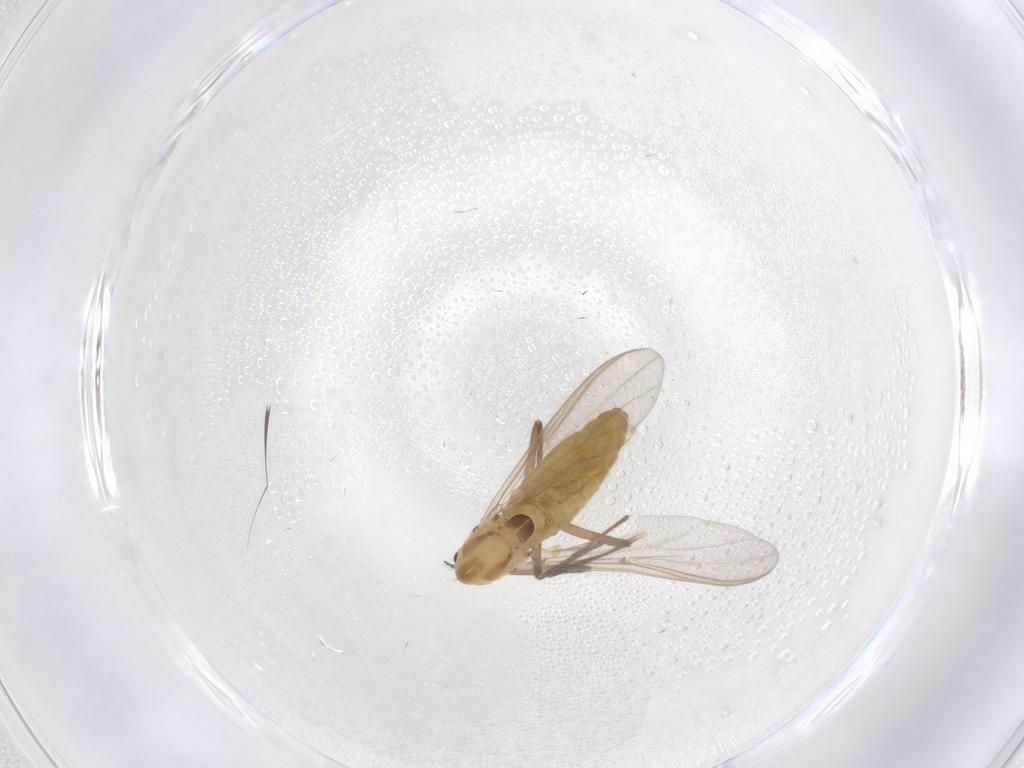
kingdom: Animalia
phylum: Arthropoda
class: Insecta
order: Diptera
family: Chironomidae
